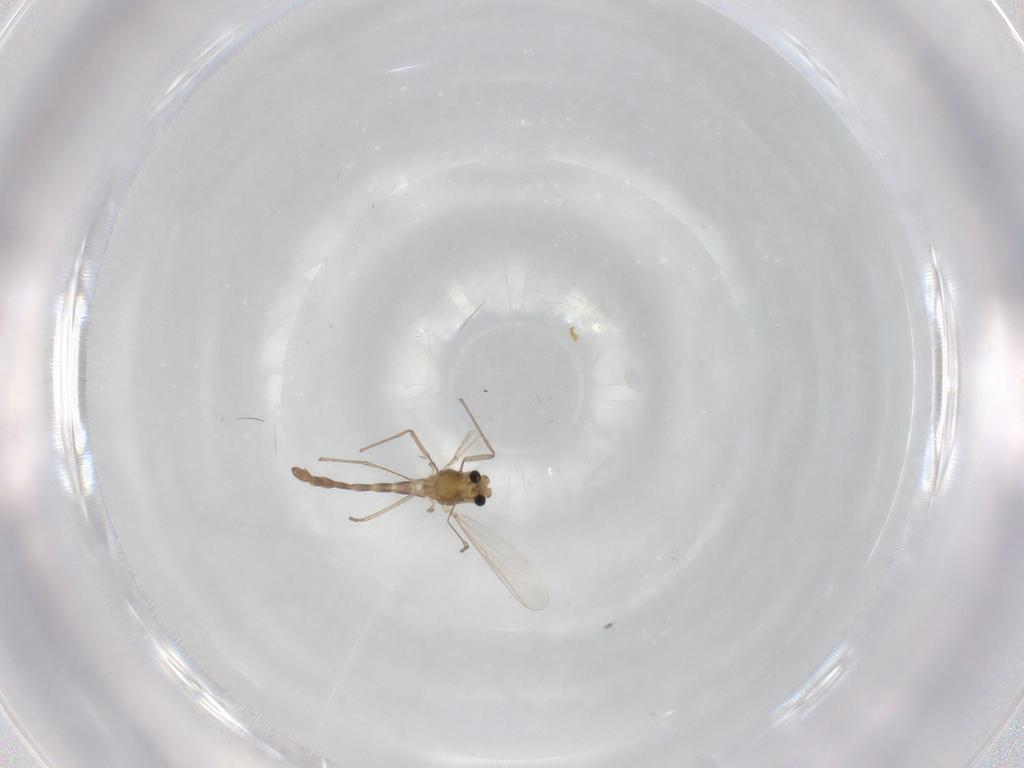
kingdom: Animalia
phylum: Arthropoda
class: Insecta
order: Diptera
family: Chironomidae
